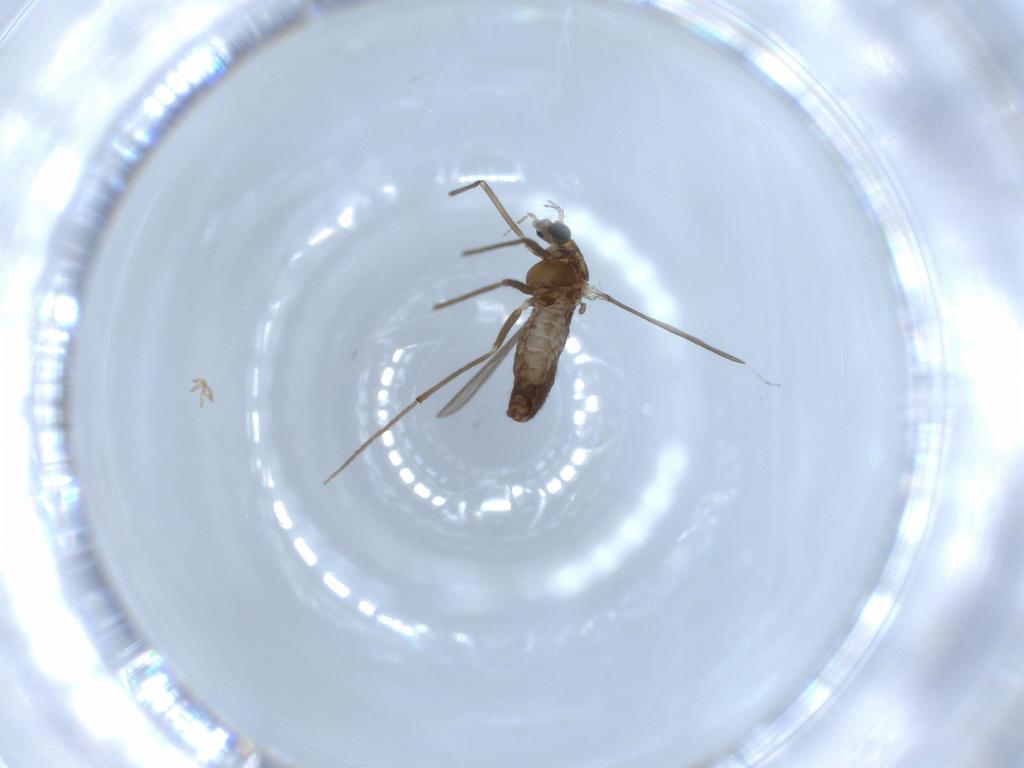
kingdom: Animalia
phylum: Arthropoda
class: Insecta
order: Diptera
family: Chironomidae
